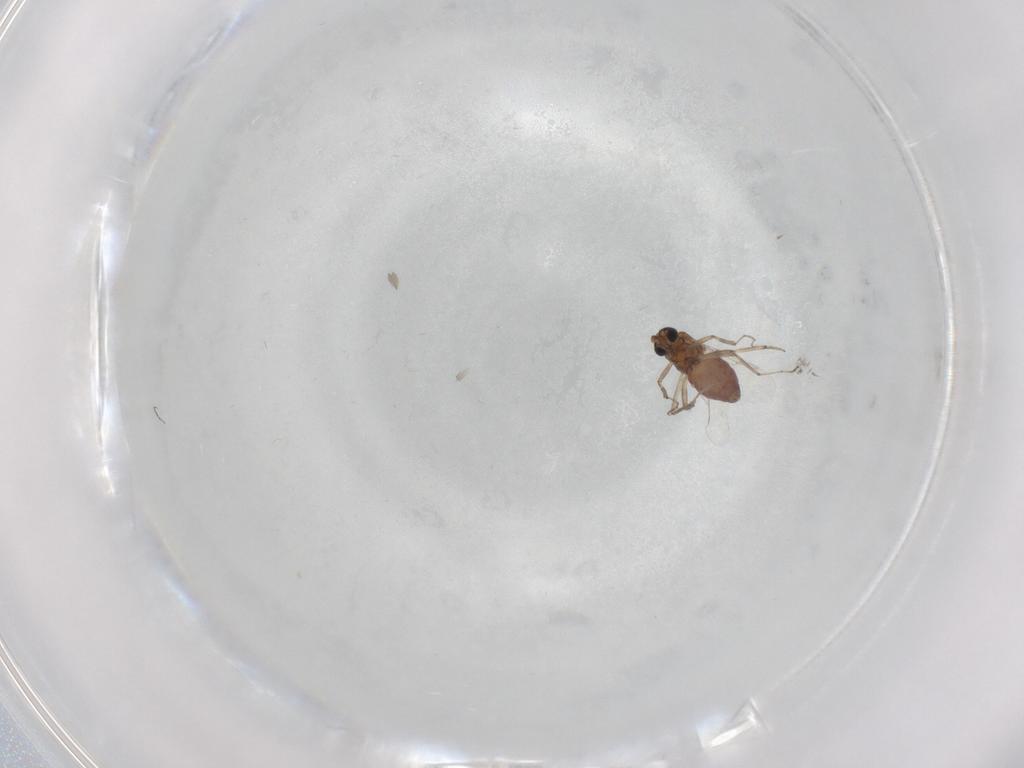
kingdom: Animalia
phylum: Arthropoda
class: Insecta
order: Diptera
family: Ceratopogonidae
